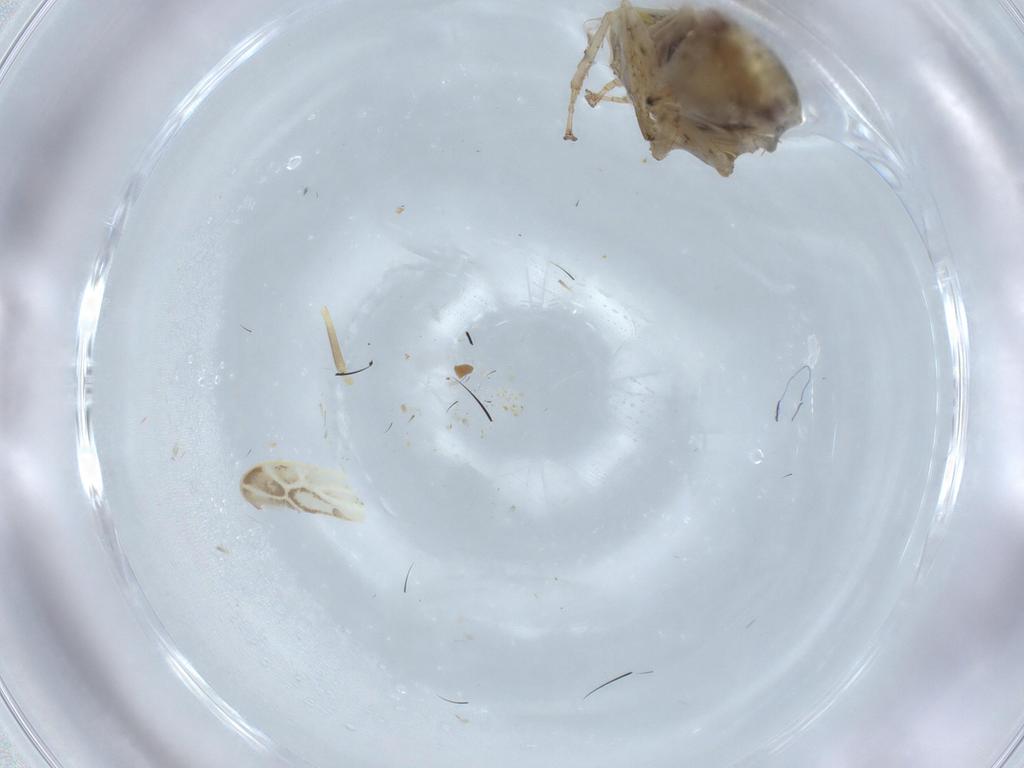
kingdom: Animalia
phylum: Arthropoda
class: Insecta
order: Hemiptera
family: Cicadellidae
